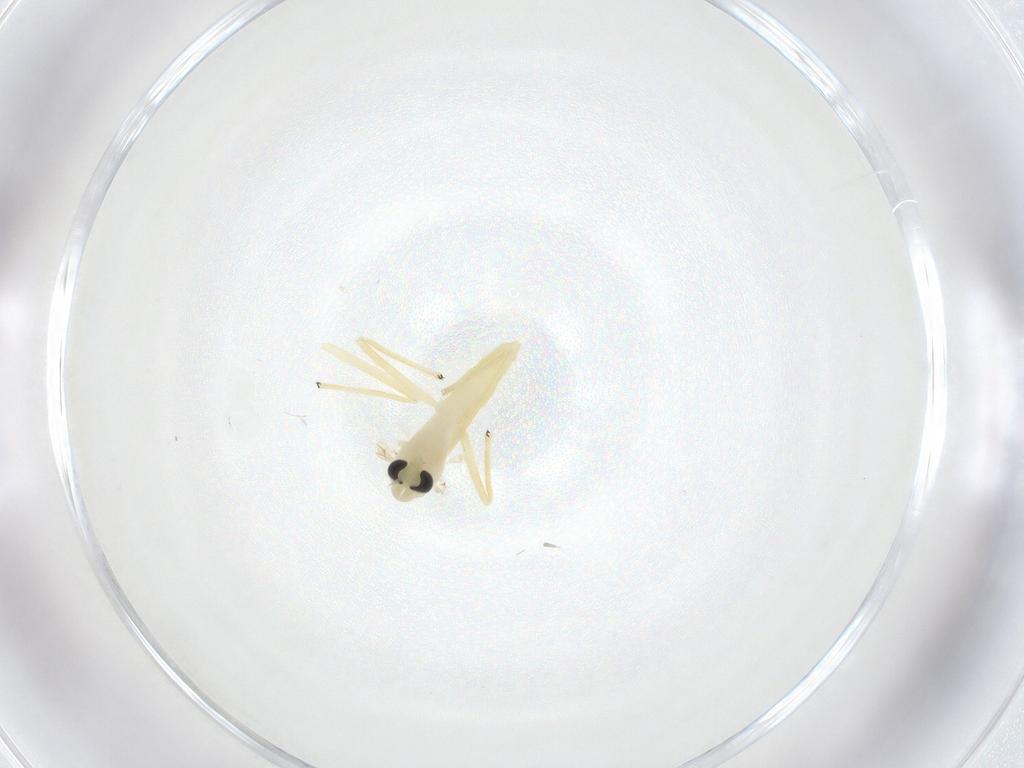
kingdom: Animalia
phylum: Arthropoda
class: Insecta
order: Diptera
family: Chironomidae
